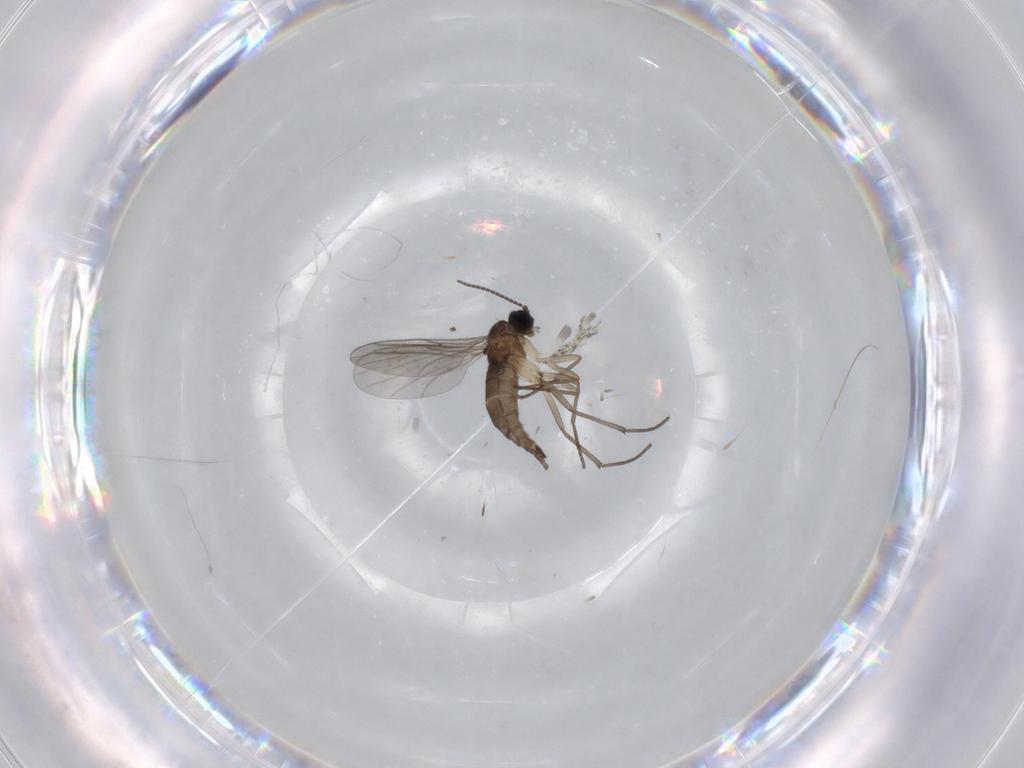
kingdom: Animalia
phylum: Arthropoda
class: Insecta
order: Diptera
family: Sciaridae
